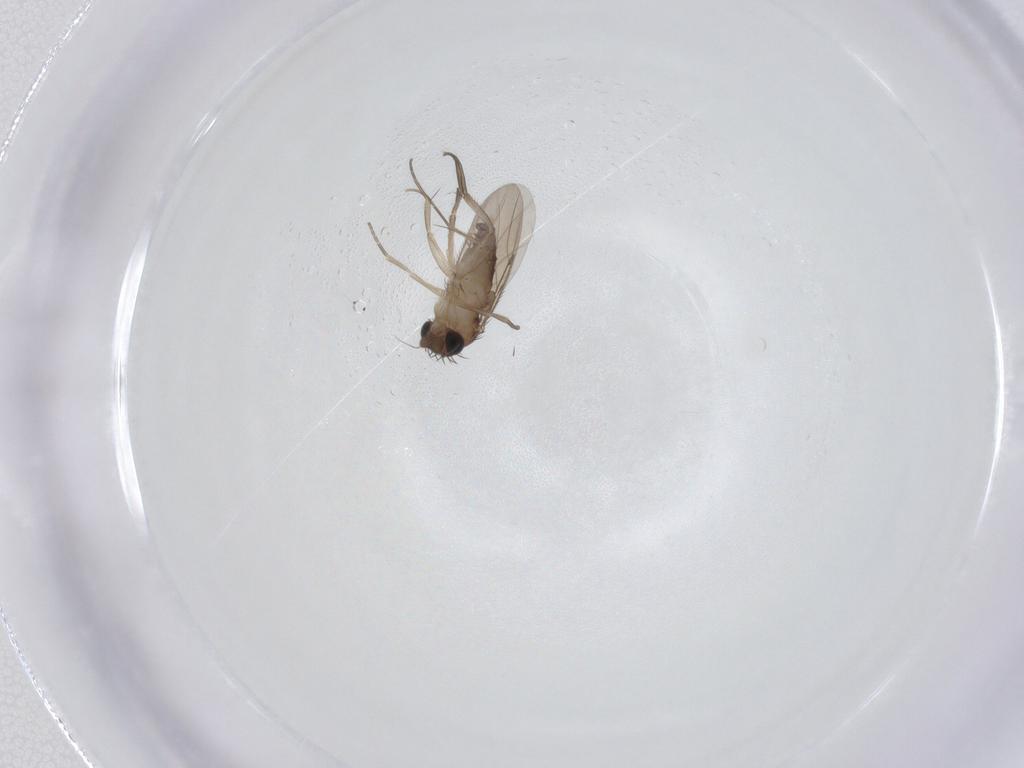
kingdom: Animalia
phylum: Arthropoda
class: Insecta
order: Diptera
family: Phoridae
